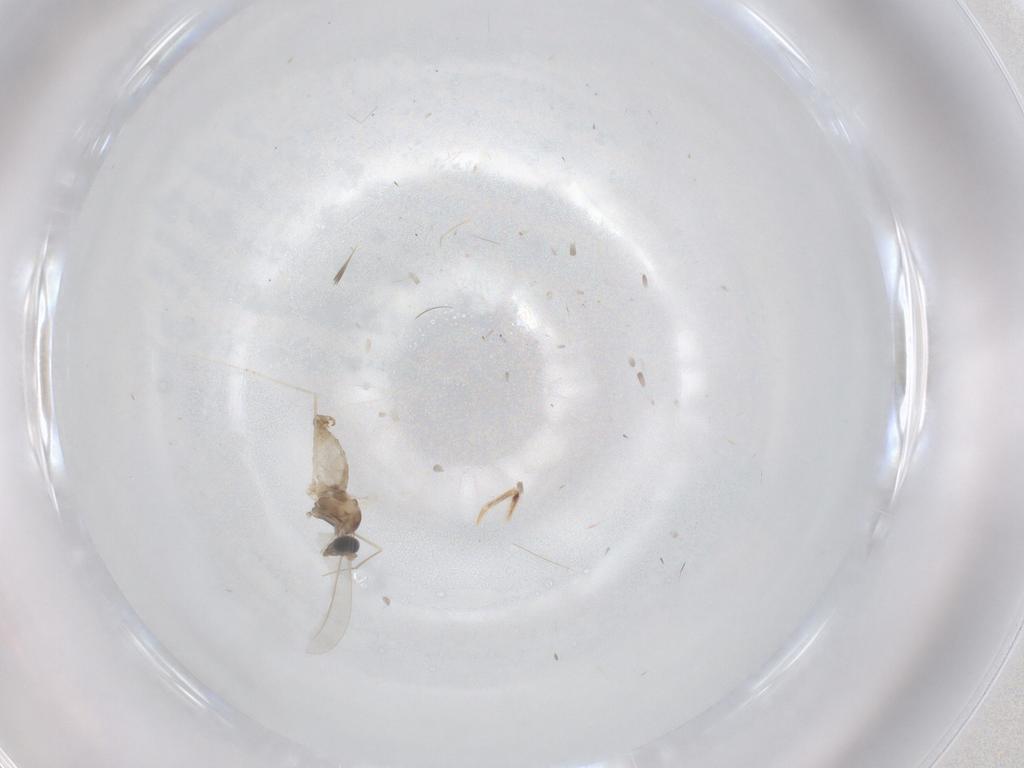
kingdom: Animalia
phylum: Arthropoda
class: Insecta
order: Diptera
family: Cecidomyiidae
